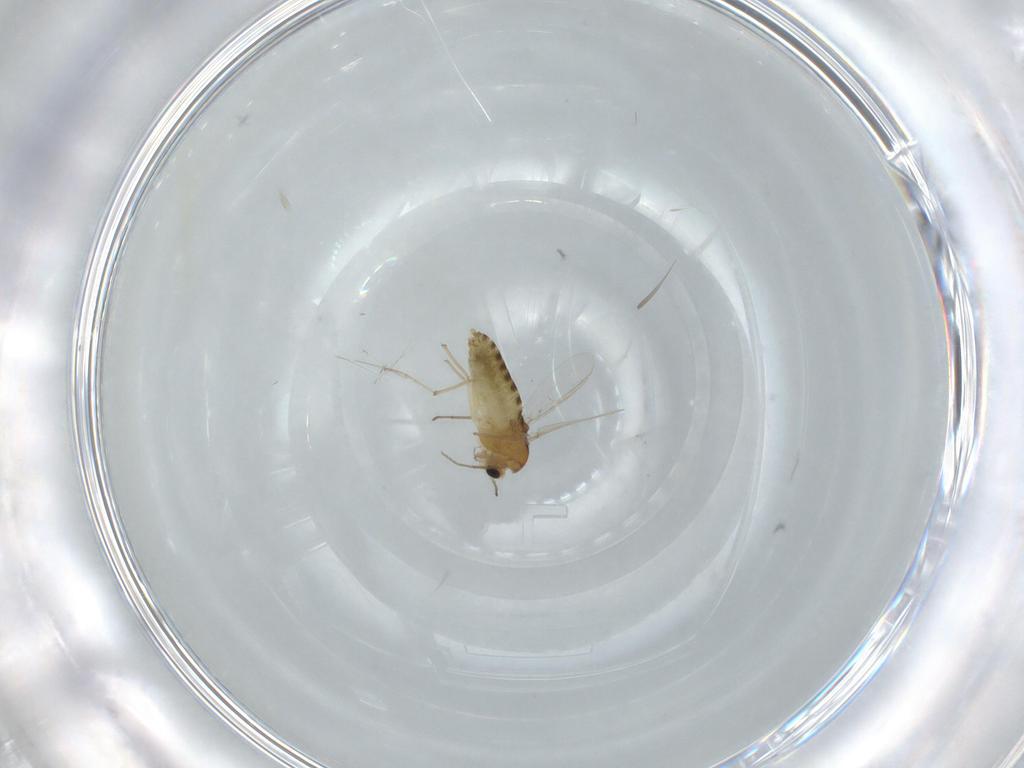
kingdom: Animalia
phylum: Arthropoda
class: Insecta
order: Diptera
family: Chironomidae
